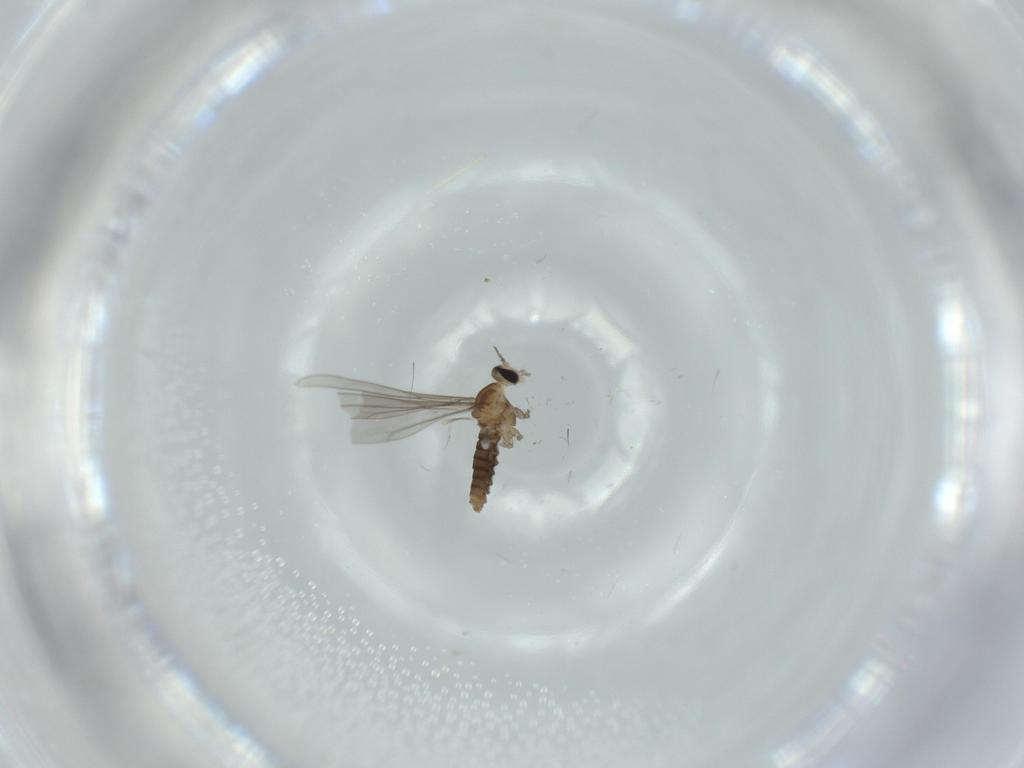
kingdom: Animalia
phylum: Arthropoda
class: Insecta
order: Diptera
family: Cecidomyiidae
